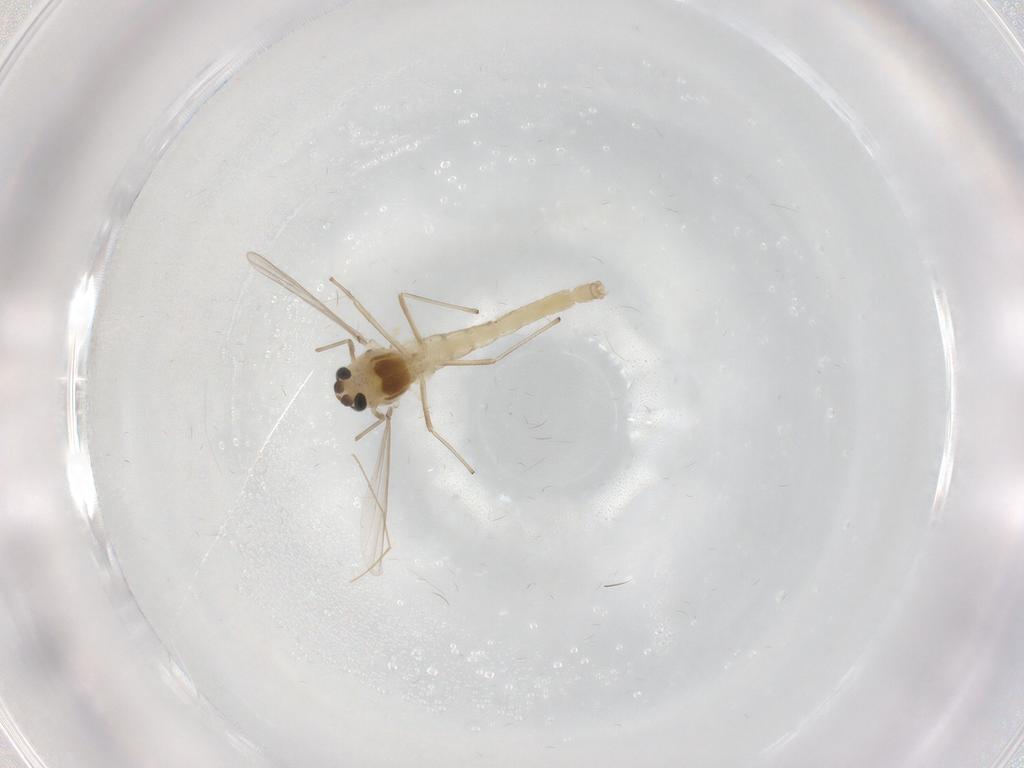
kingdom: Animalia
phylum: Arthropoda
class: Insecta
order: Diptera
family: Chironomidae
